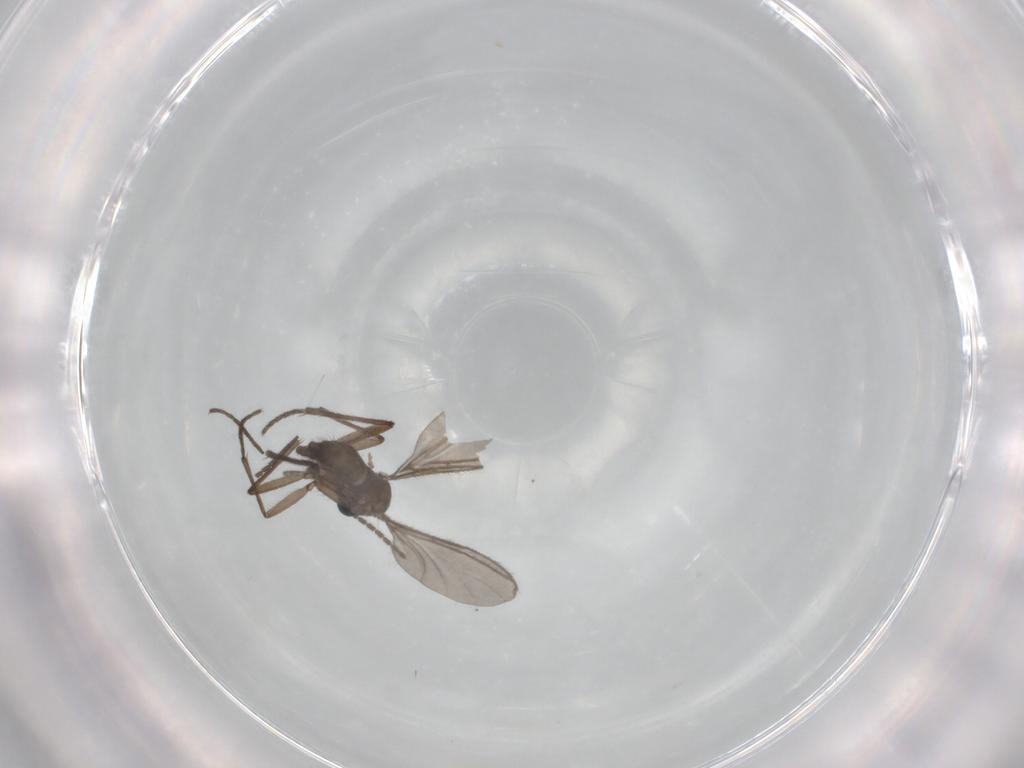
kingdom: Animalia
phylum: Arthropoda
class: Insecta
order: Diptera
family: Sciaridae
